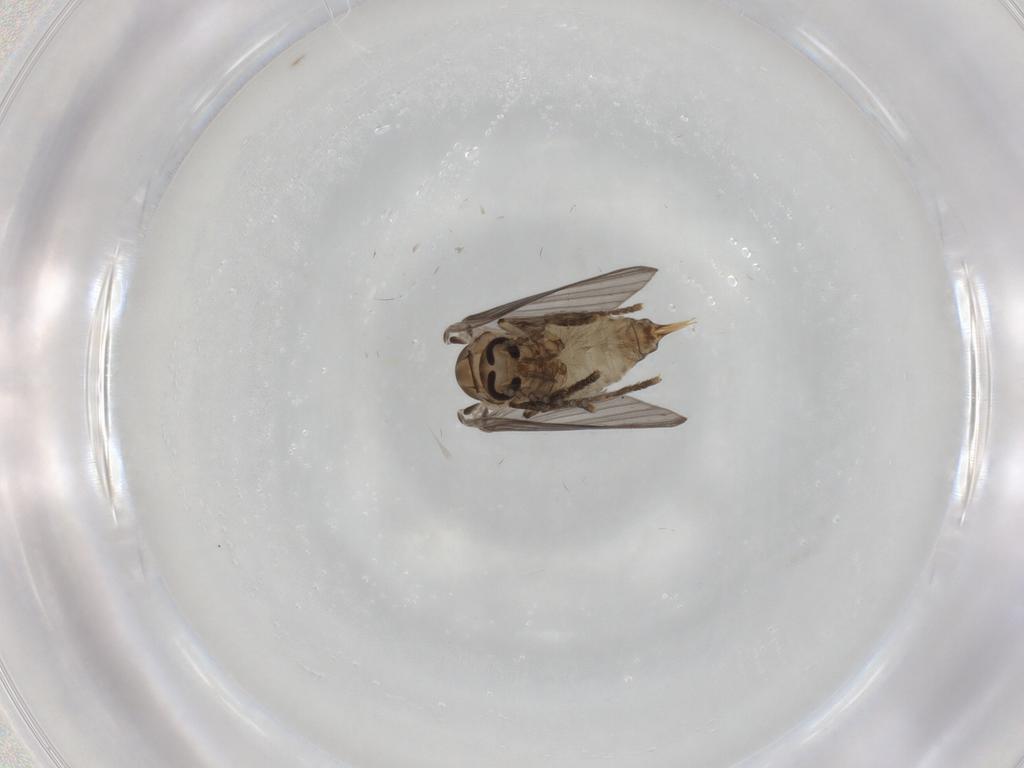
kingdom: Animalia
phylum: Arthropoda
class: Insecta
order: Diptera
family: Psychodidae
